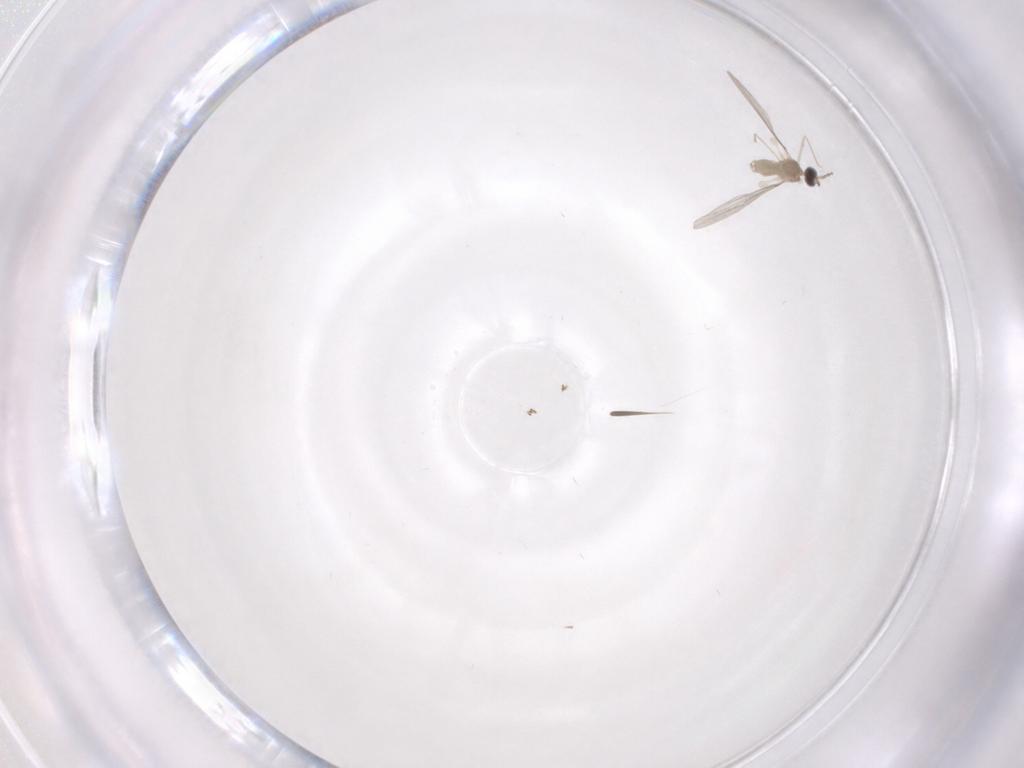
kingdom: Animalia
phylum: Arthropoda
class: Insecta
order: Diptera
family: Cecidomyiidae
